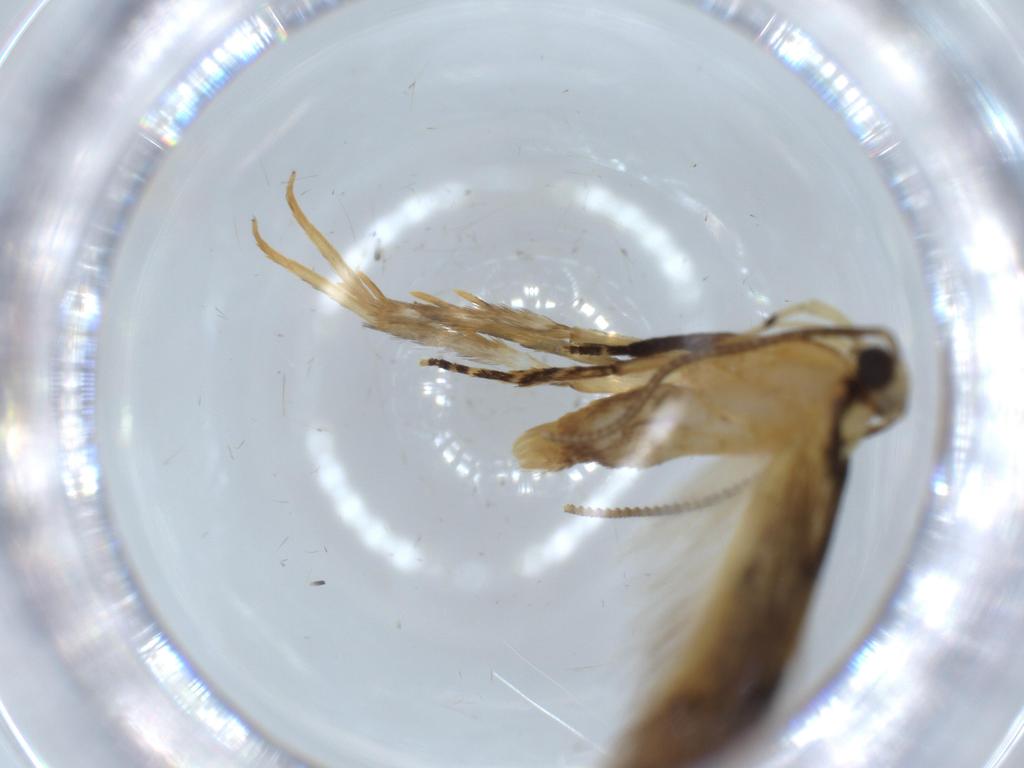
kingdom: Animalia
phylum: Arthropoda
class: Insecta
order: Lepidoptera
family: Autostichidae
